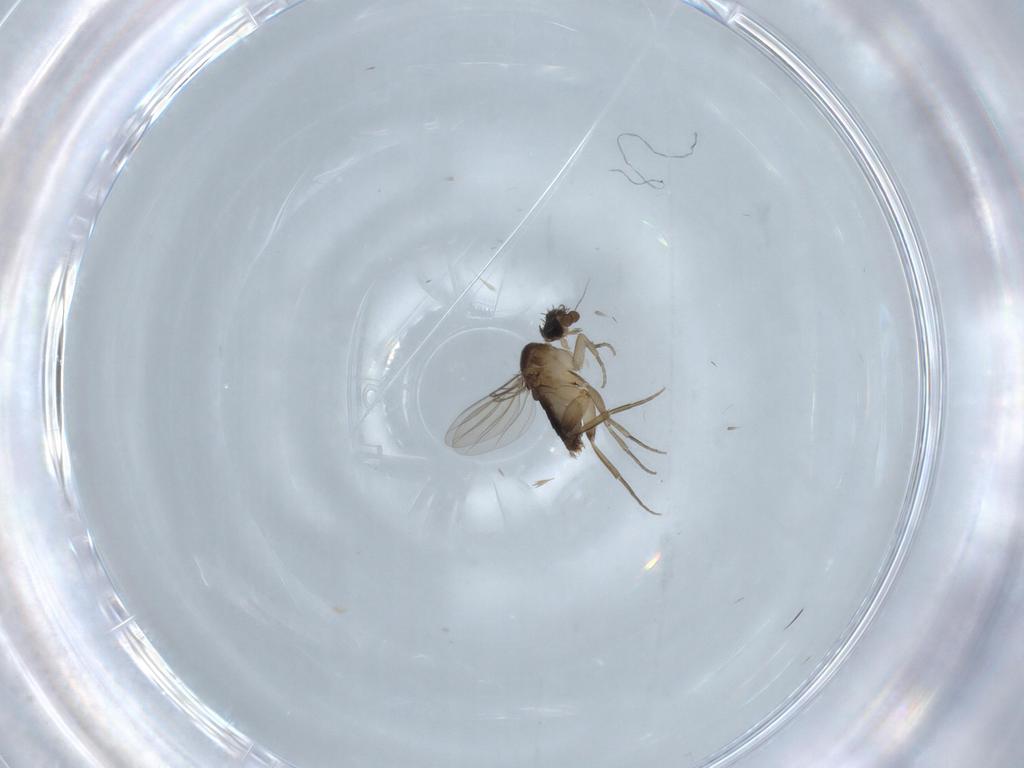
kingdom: Animalia
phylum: Arthropoda
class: Insecta
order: Diptera
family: Phoridae
